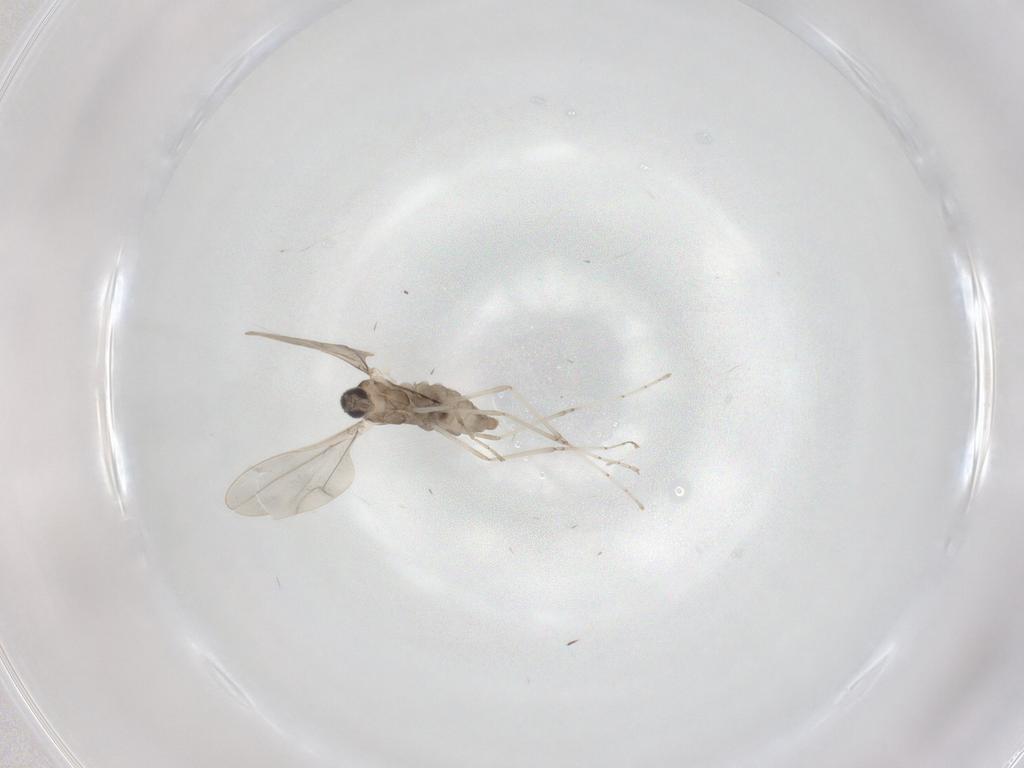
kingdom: Animalia
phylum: Arthropoda
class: Insecta
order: Diptera
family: Cecidomyiidae
